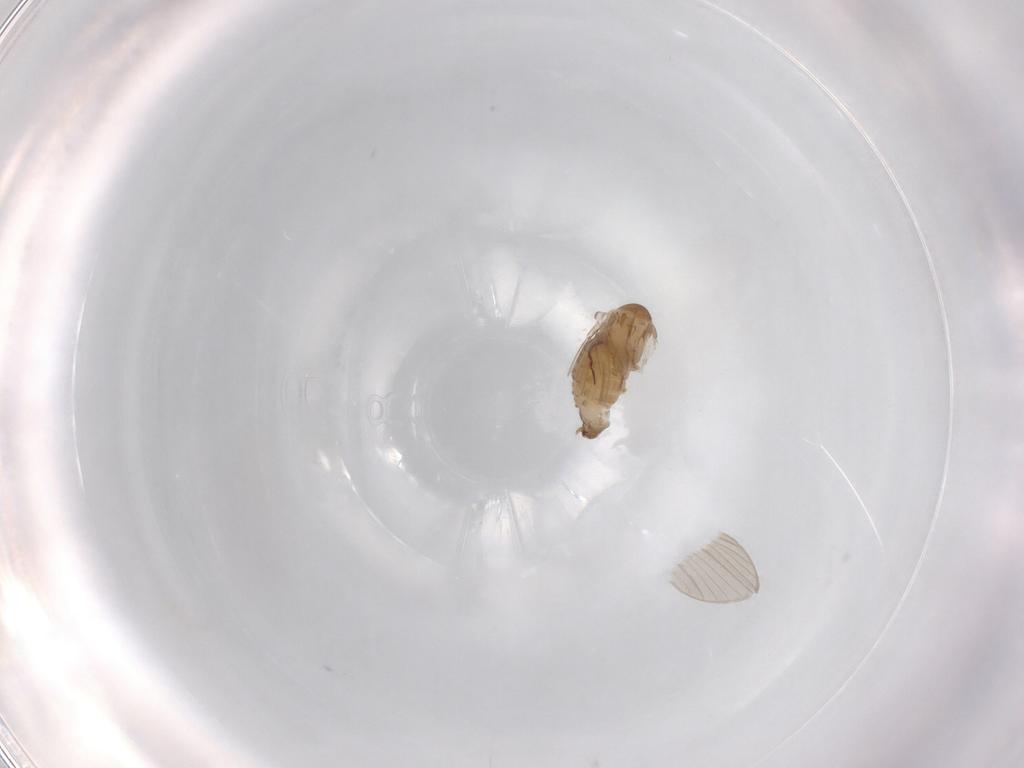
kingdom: Animalia
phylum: Arthropoda
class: Insecta
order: Diptera
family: Psychodidae
